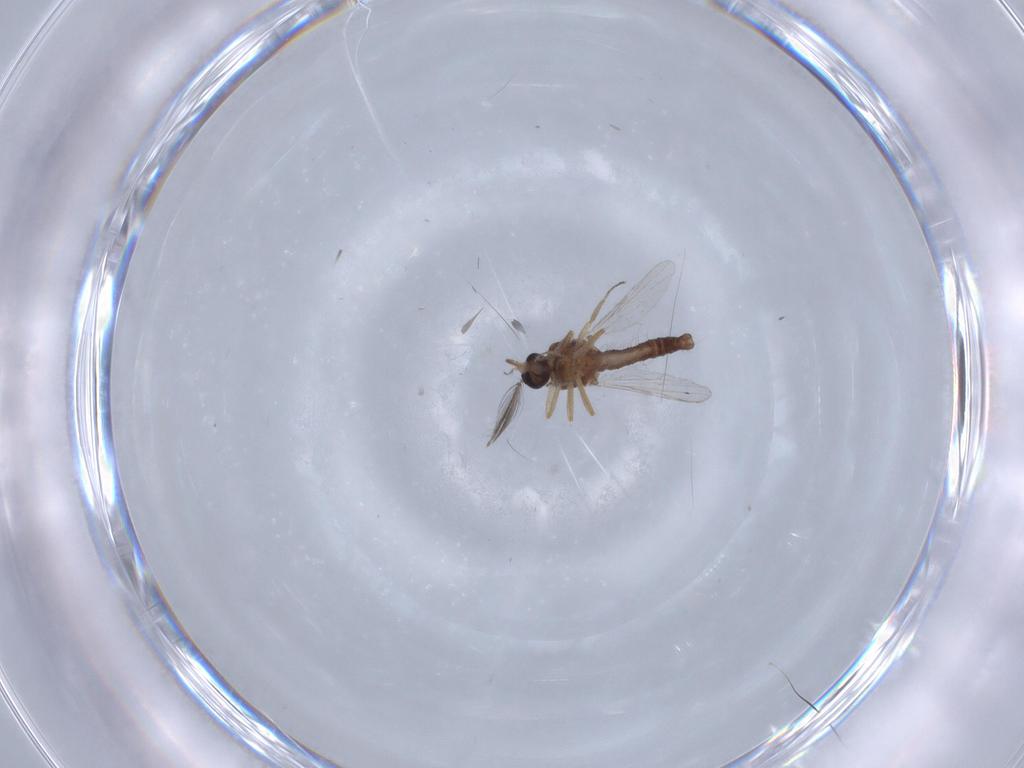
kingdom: Animalia
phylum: Arthropoda
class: Insecta
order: Diptera
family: Ceratopogonidae
